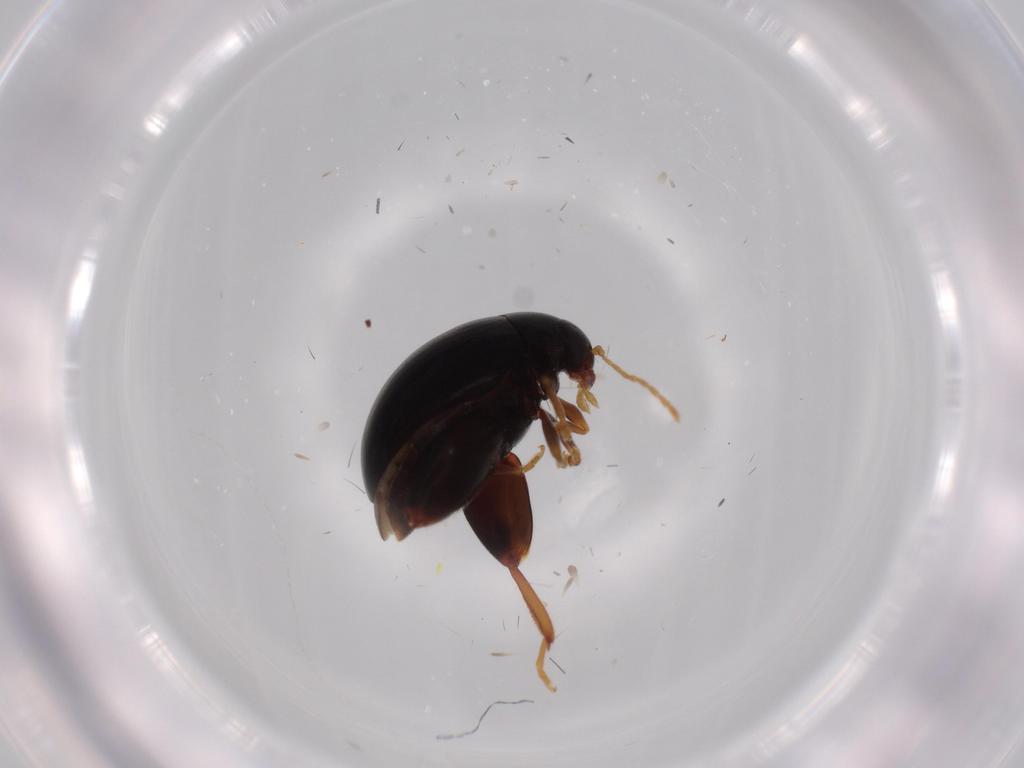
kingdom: Animalia
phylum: Arthropoda
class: Insecta
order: Coleoptera
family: Chrysomelidae
